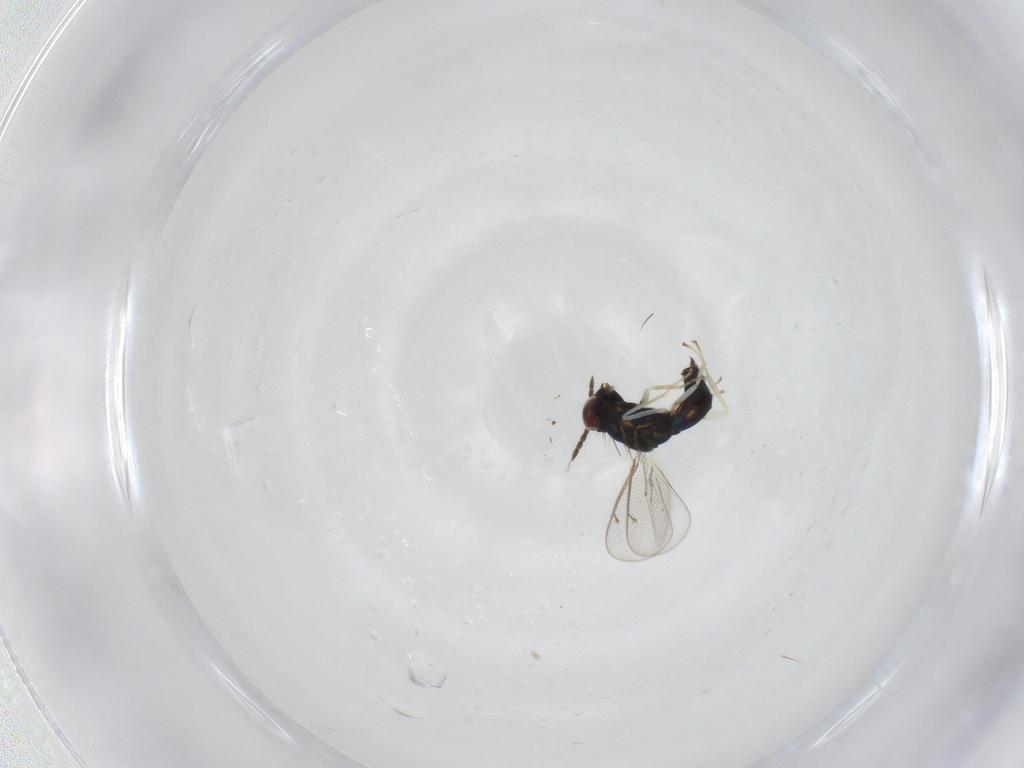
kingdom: Animalia
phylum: Arthropoda
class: Insecta
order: Hymenoptera
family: Eulophidae
